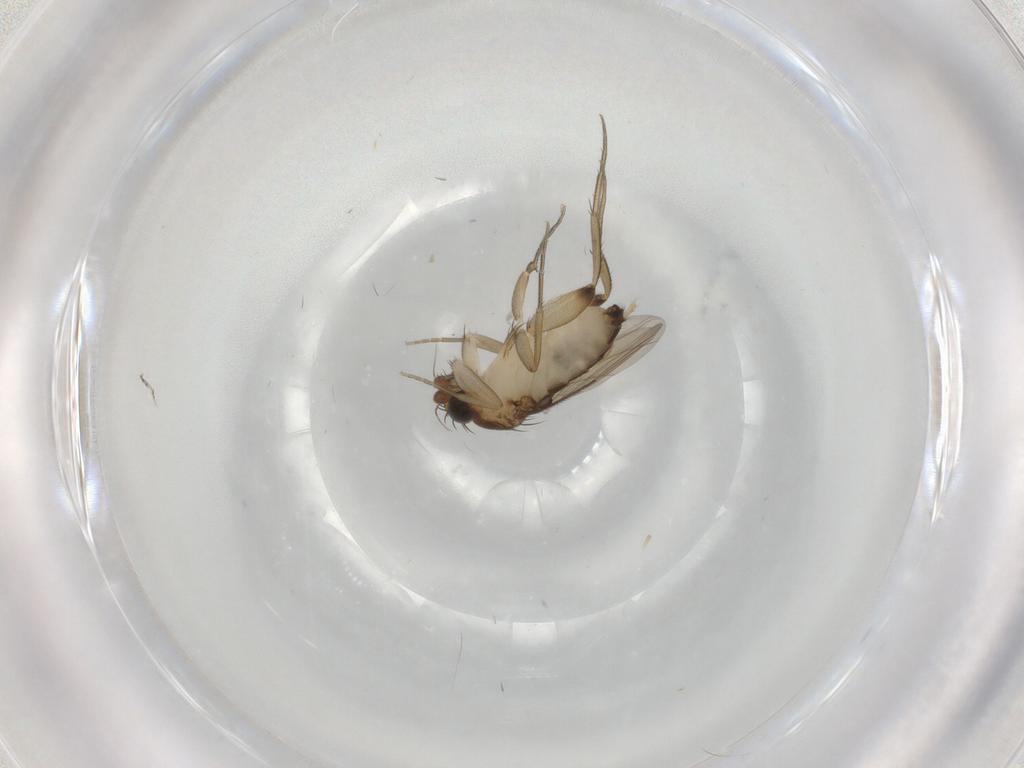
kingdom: Animalia
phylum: Arthropoda
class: Insecta
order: Diptera
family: Phoridae
